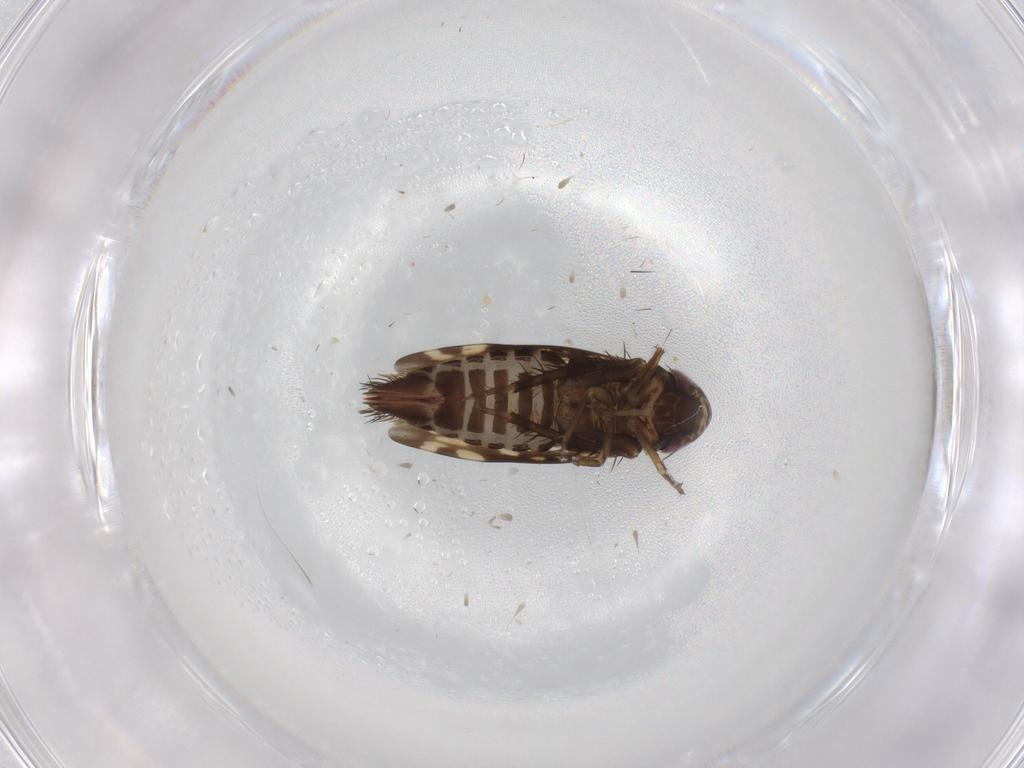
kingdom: Animalia
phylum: Arthropoda
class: Insecta
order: Hemiptera
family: Cicadellidae
